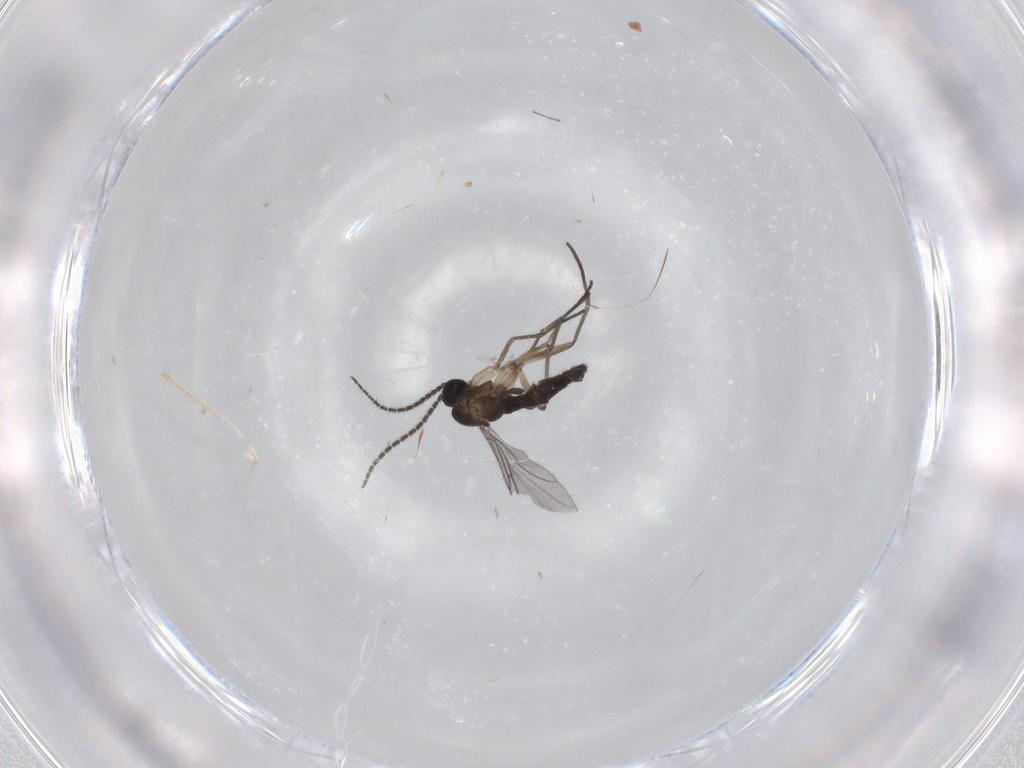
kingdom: Animalia
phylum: Arthropoda
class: Insecta
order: Diptera
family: Sciaridae
